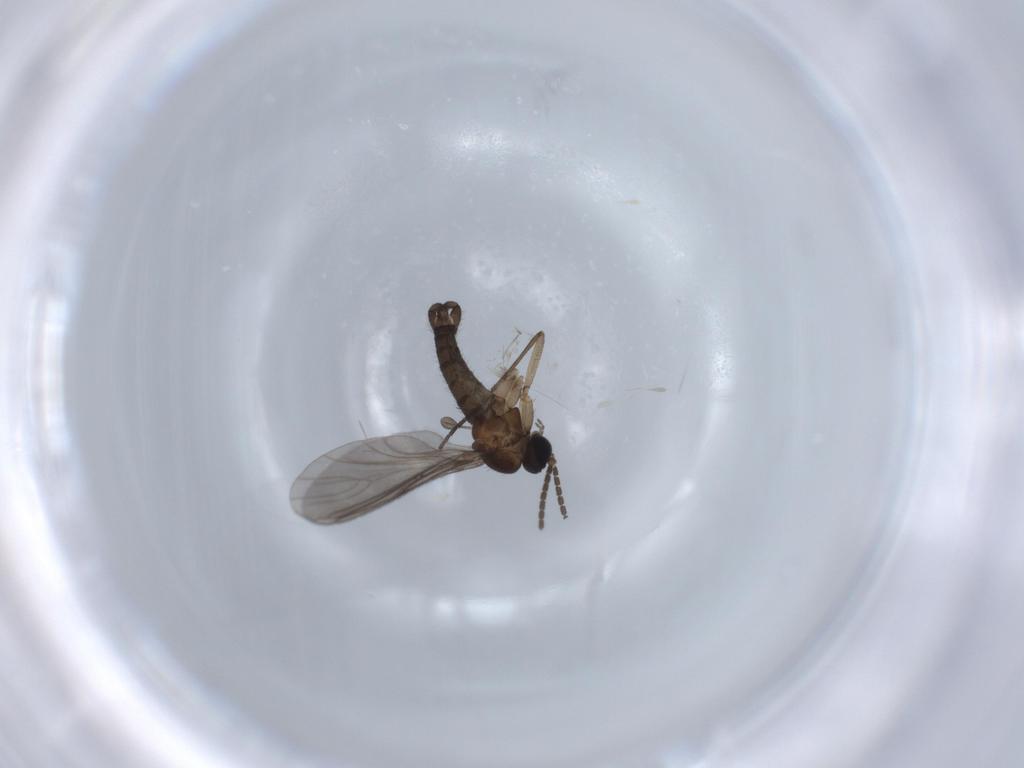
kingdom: Animalia
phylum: Arthropoda
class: Insecta
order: Diptera
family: Sciaridae
